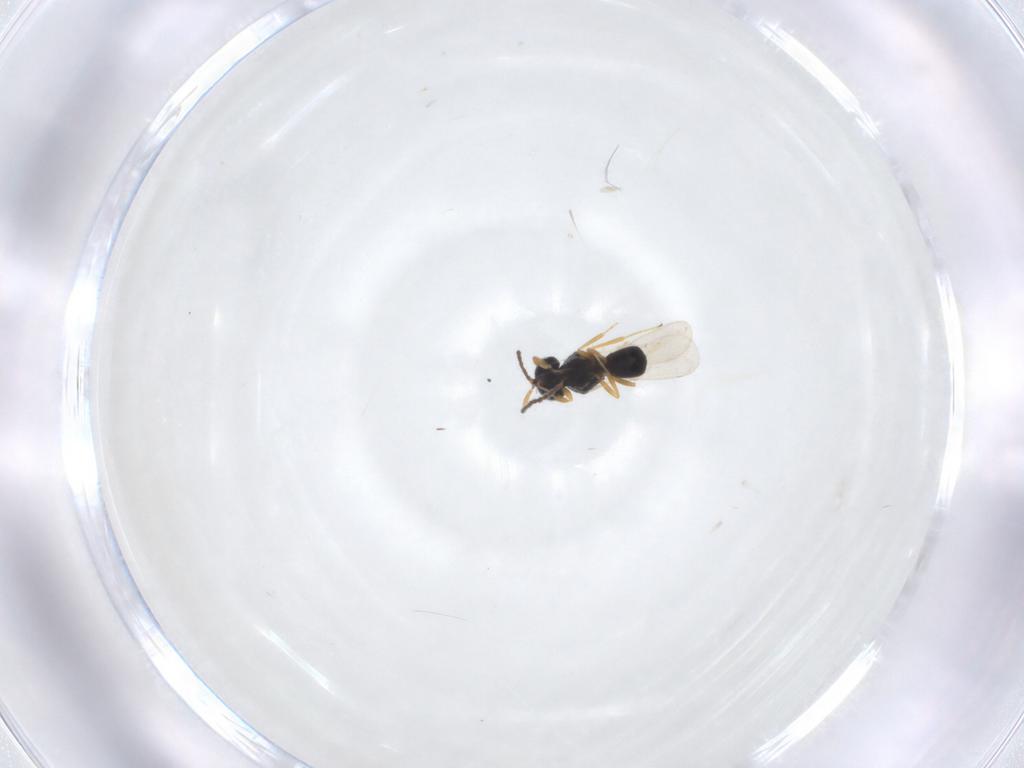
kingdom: Animalia
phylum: Arthropoda
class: Insecta
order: Hymenoptera
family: Scelionidae
